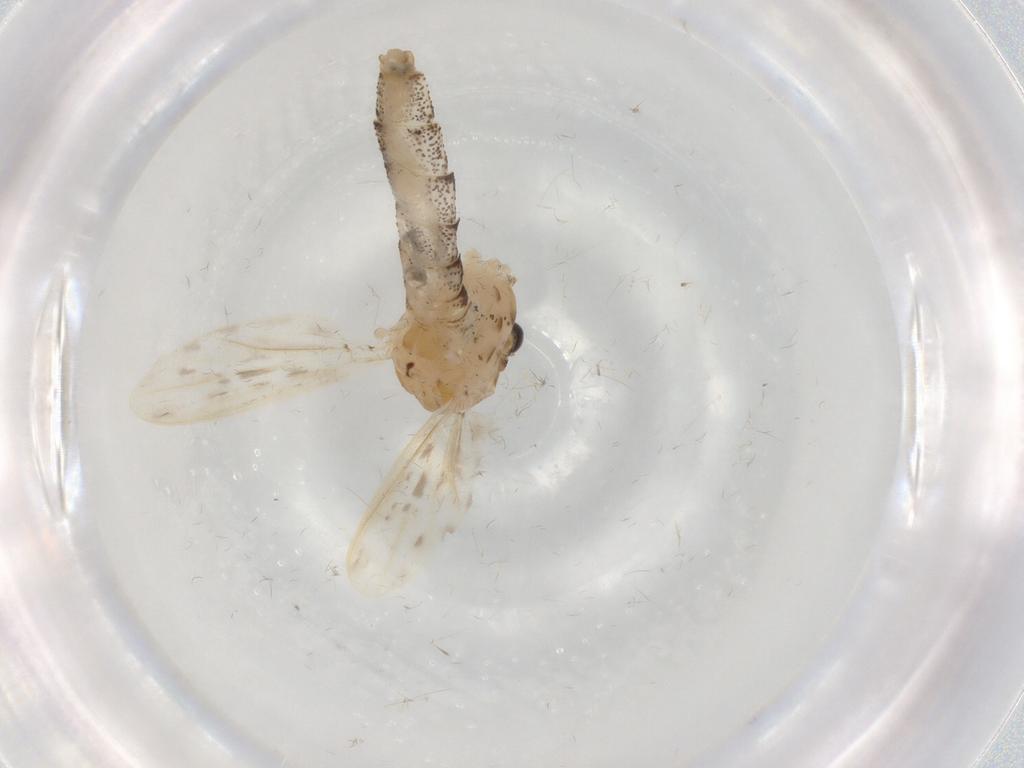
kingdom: Animalia
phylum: Arthropoda
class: Insecta
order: Diptera
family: Chaoboridae
